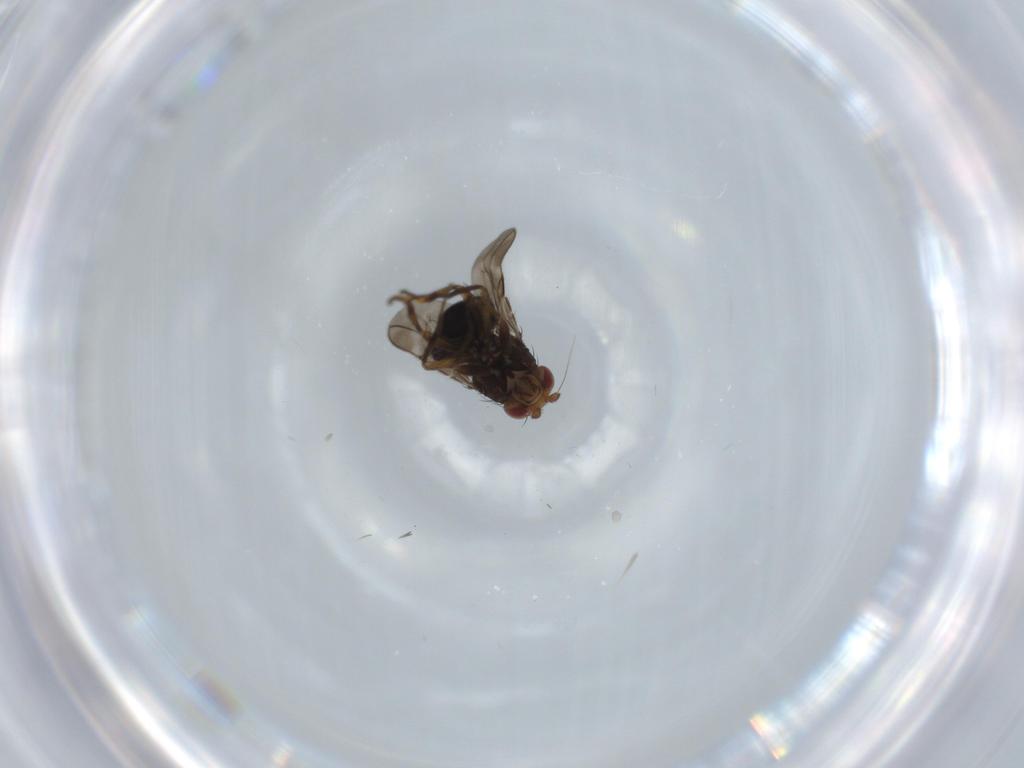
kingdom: Animalia
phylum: Arthropoda
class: Insecta
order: Diptera
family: Sphaeroceridae
